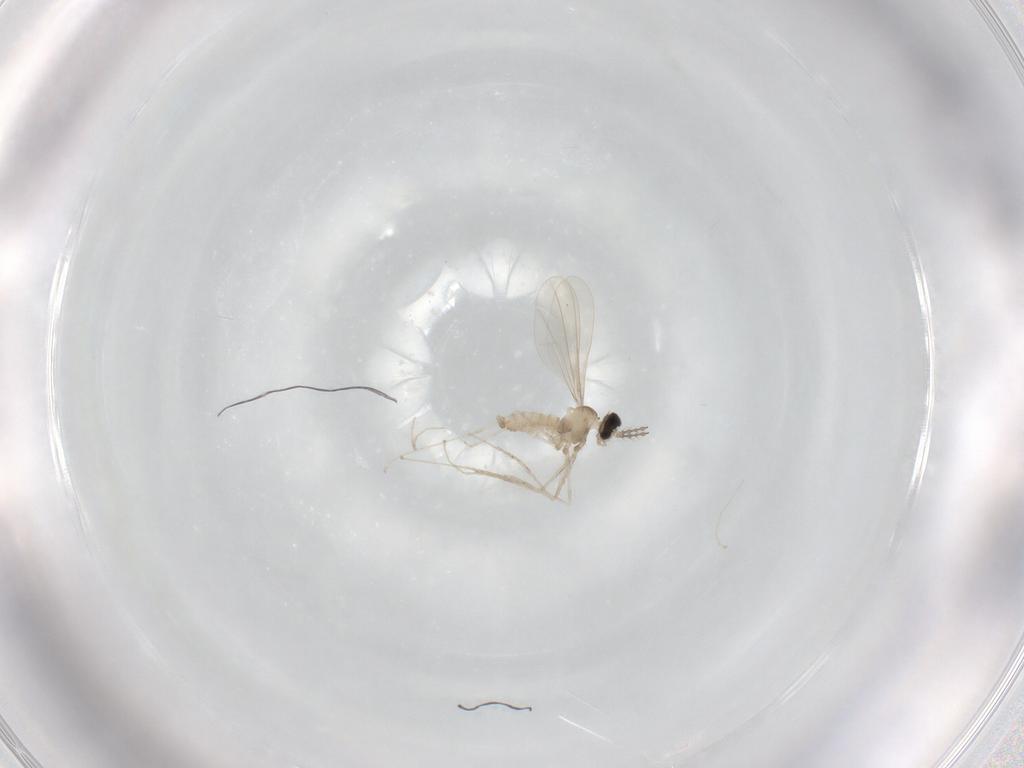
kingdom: Animalia
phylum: Arthropoda
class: Insecta
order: Diptera
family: Cecidomyiidae
